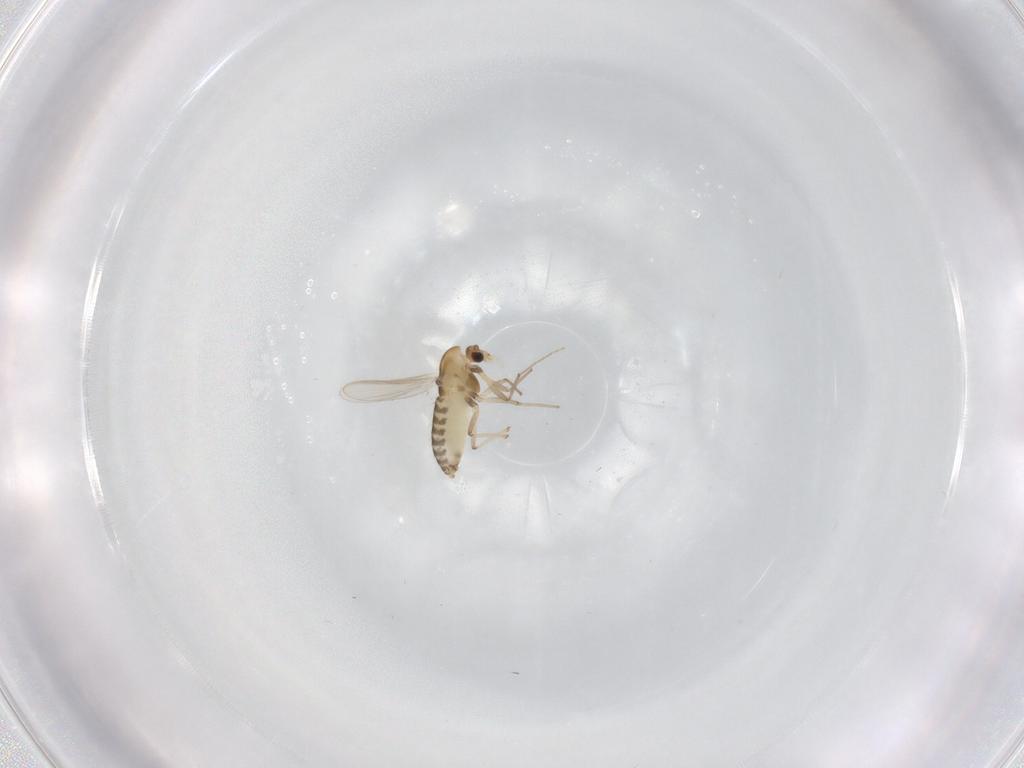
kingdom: Animalia
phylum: Arthropoda
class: Insecta
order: Diptera
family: Chironomidae
